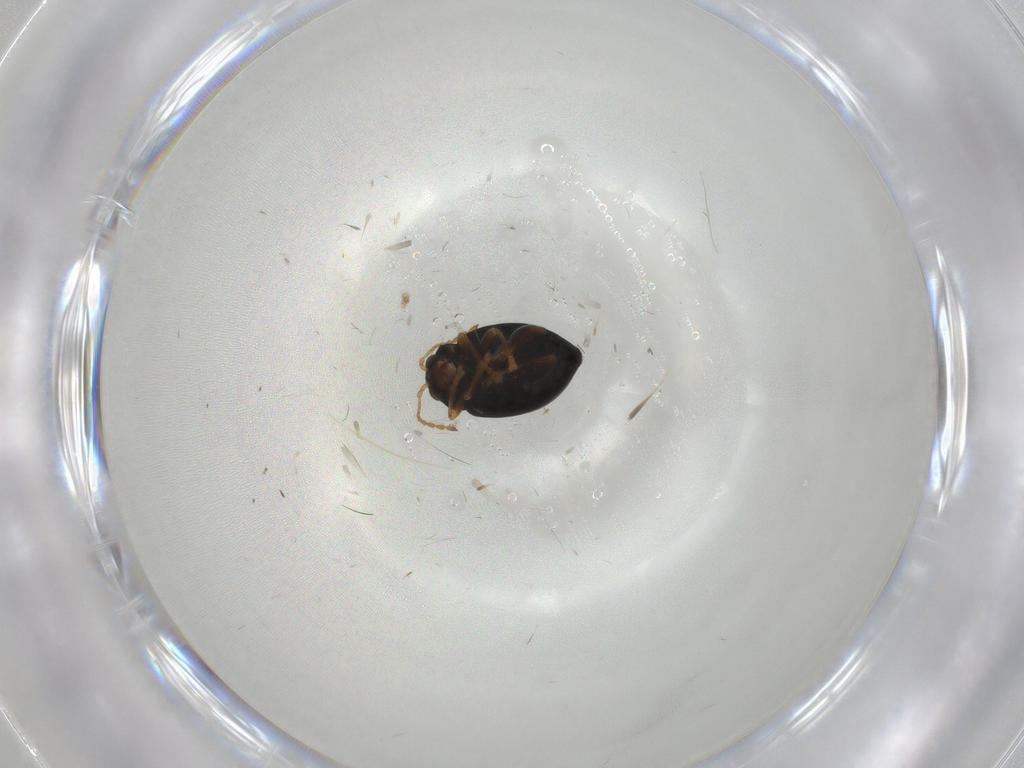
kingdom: Animalia
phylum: Arthropoda
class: Insecta
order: Coleoptera
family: Chrysomelidae
